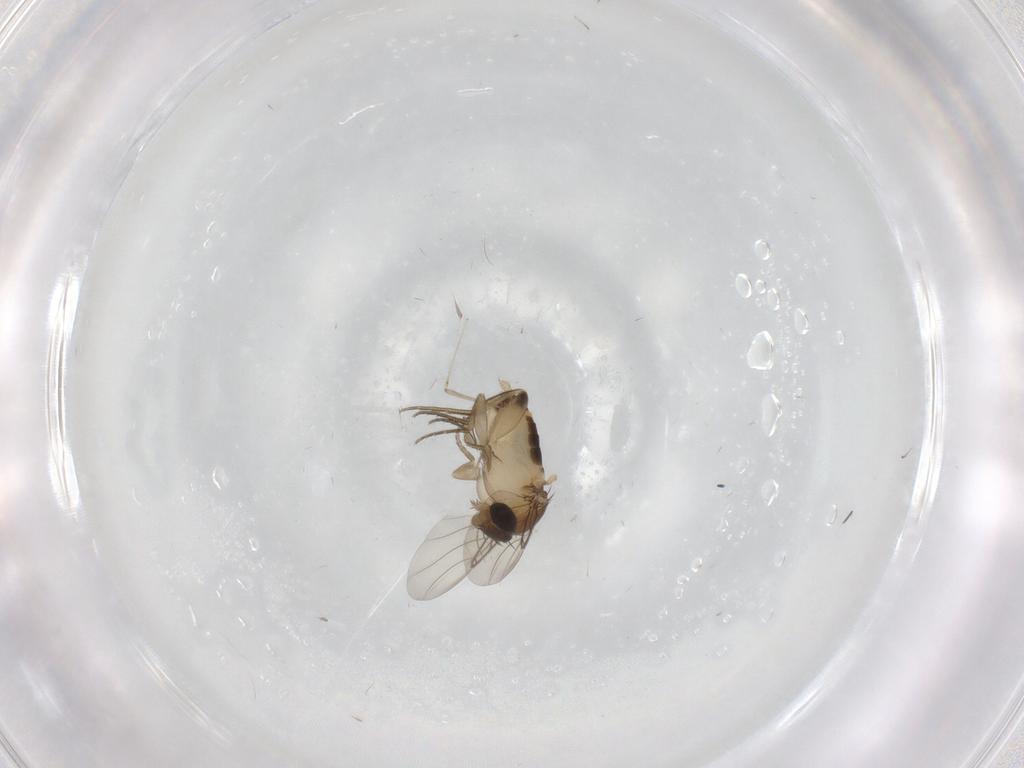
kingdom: Animalia
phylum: Arthropoda
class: Insecta
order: Diptera
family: Phoridae
